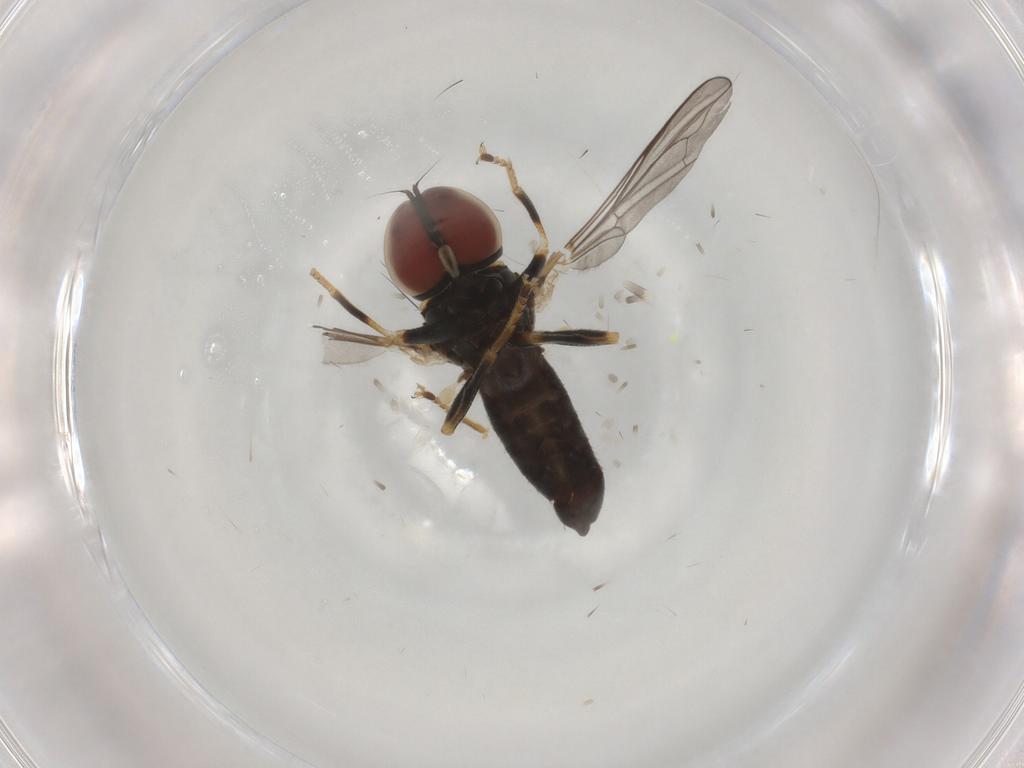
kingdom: Animalia
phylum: Arthropoda
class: Insecta
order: Diptera
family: Pipunculidae
